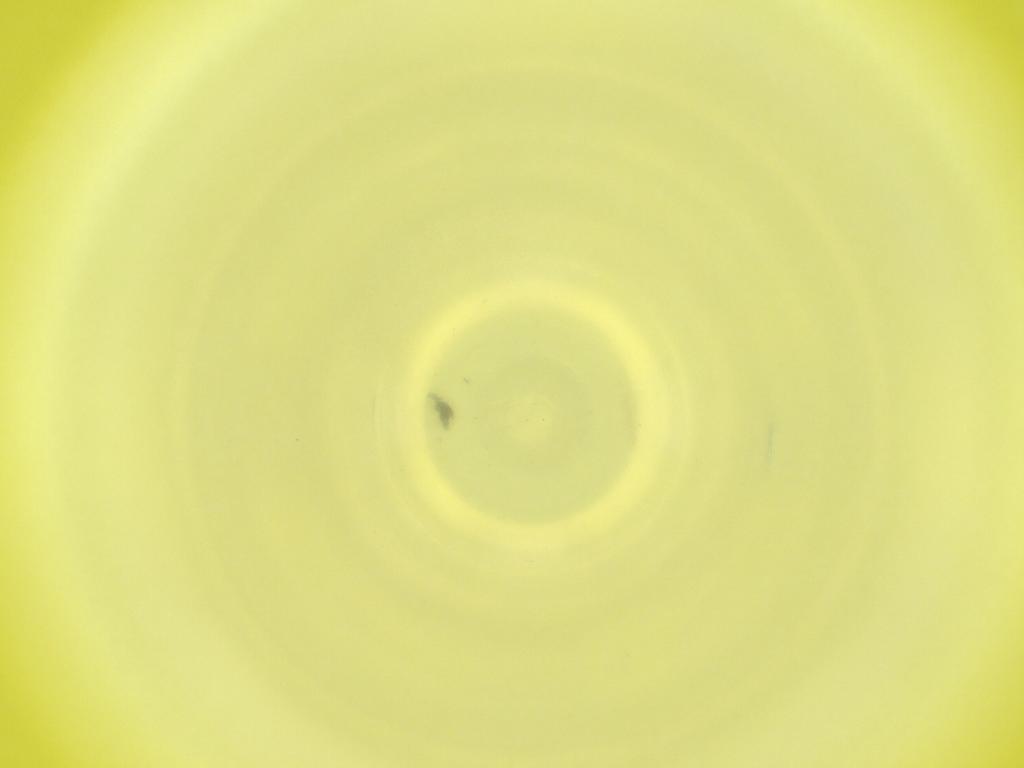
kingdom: Animalia
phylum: Arthropoda
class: Insecta
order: Diptera
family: Cecidomyiidae
